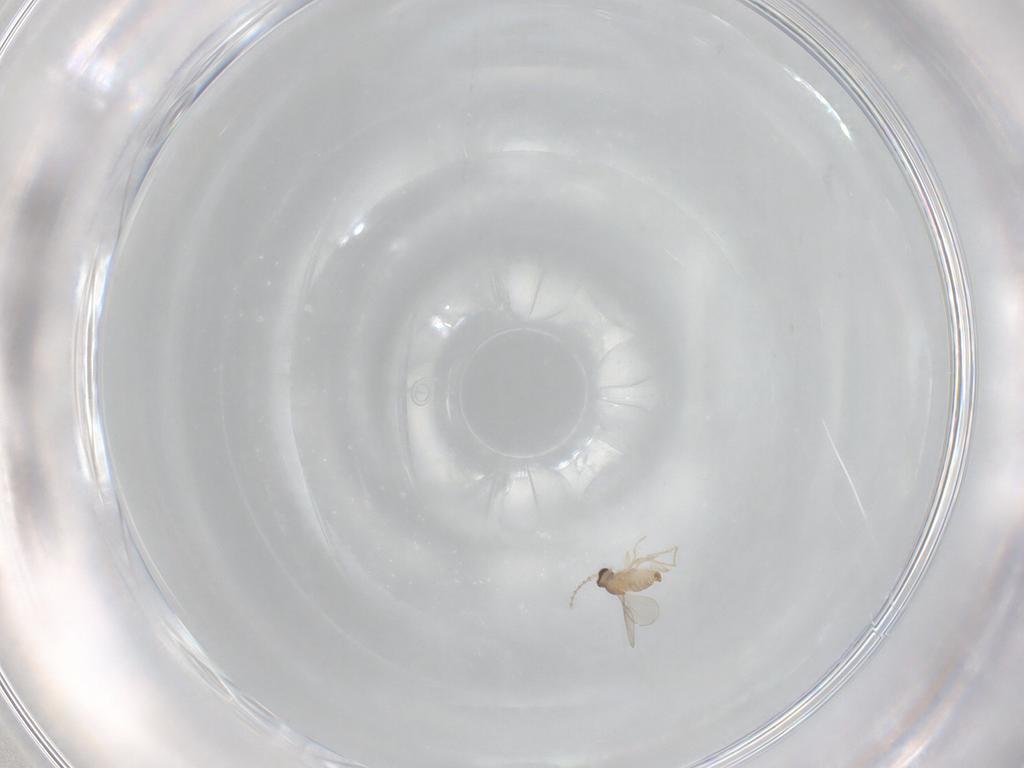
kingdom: Animalia
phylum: Arthropoda
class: Insecta
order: Diptera
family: Cecidomyiidae
